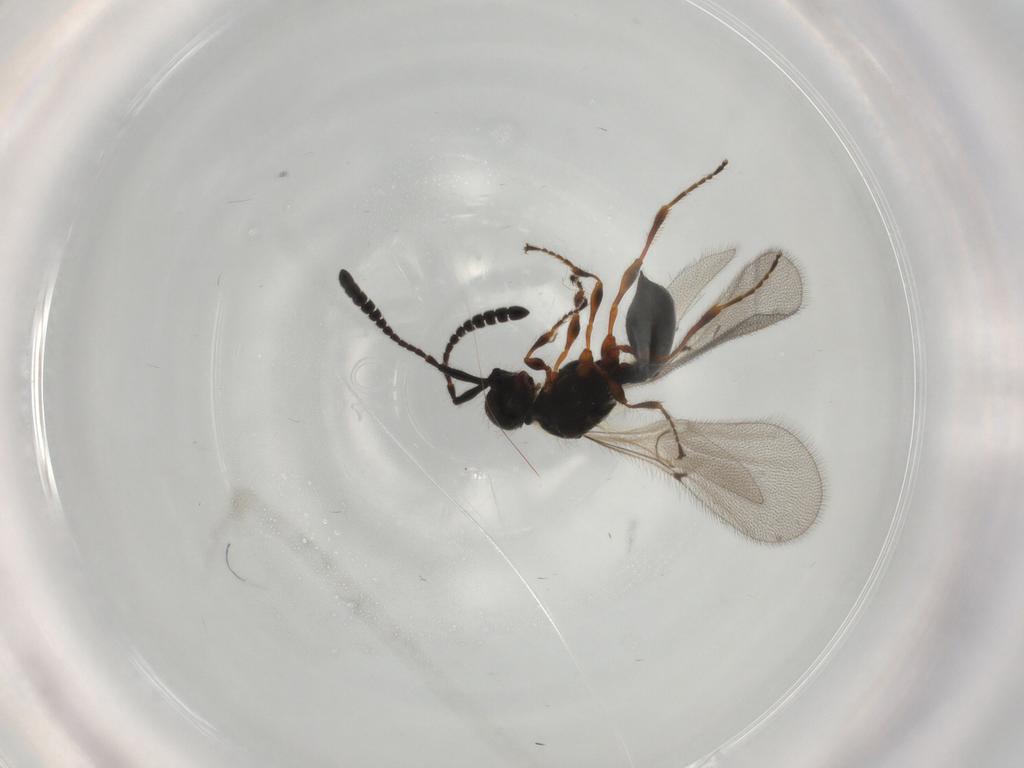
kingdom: Animalia
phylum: Arthropoda
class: Insecta
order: Hymenoptera
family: Diapriidae
